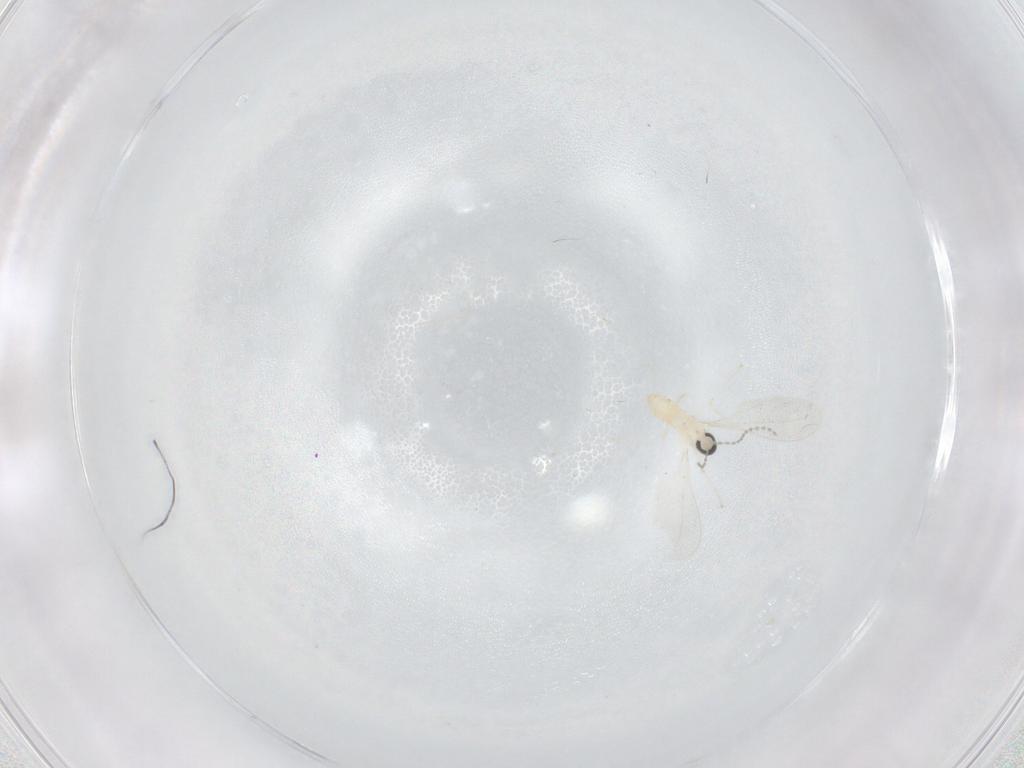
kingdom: Animalia
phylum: Arthropoda
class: Insecta
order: Diptera
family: Cecidomyiidae
